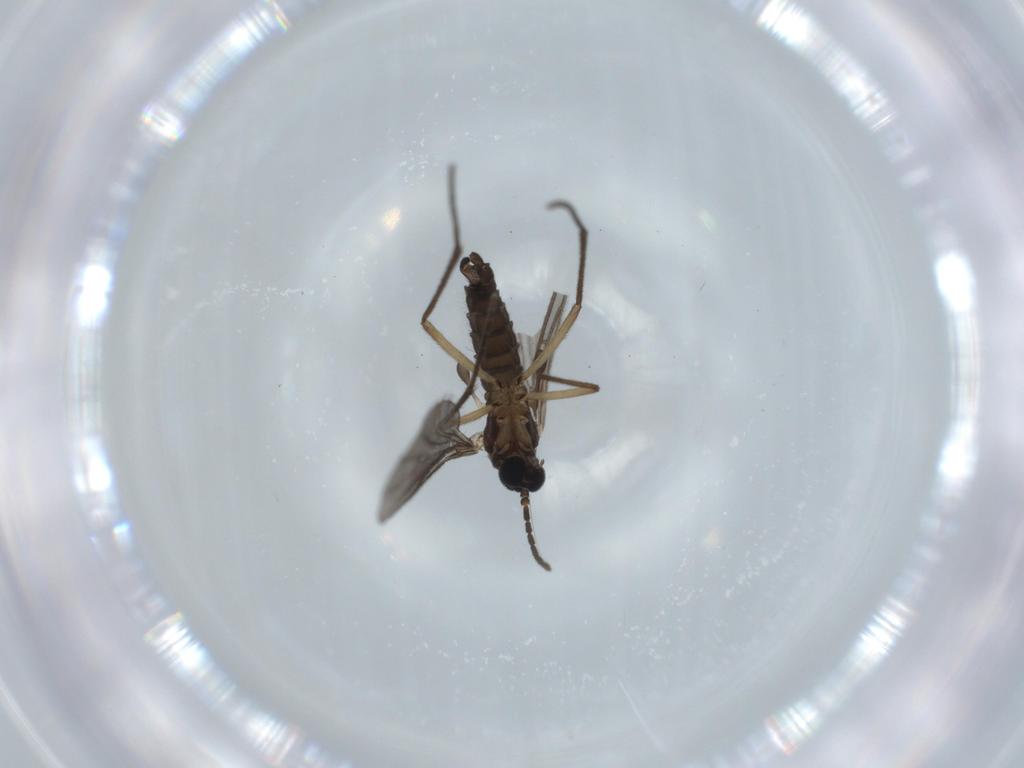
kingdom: Animalia
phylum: Arthropoda
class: Insecta
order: Diptera
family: Sciaridae
